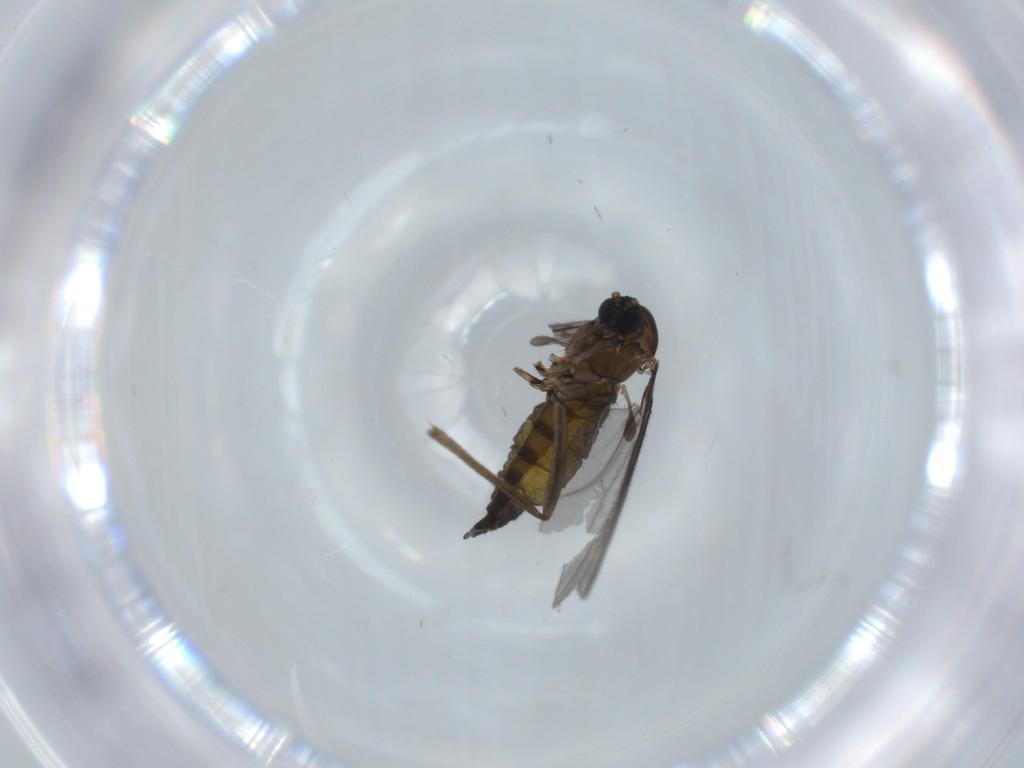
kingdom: Animalia
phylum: Arthropoda
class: Insecta
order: Diptera
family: Sciaridae
